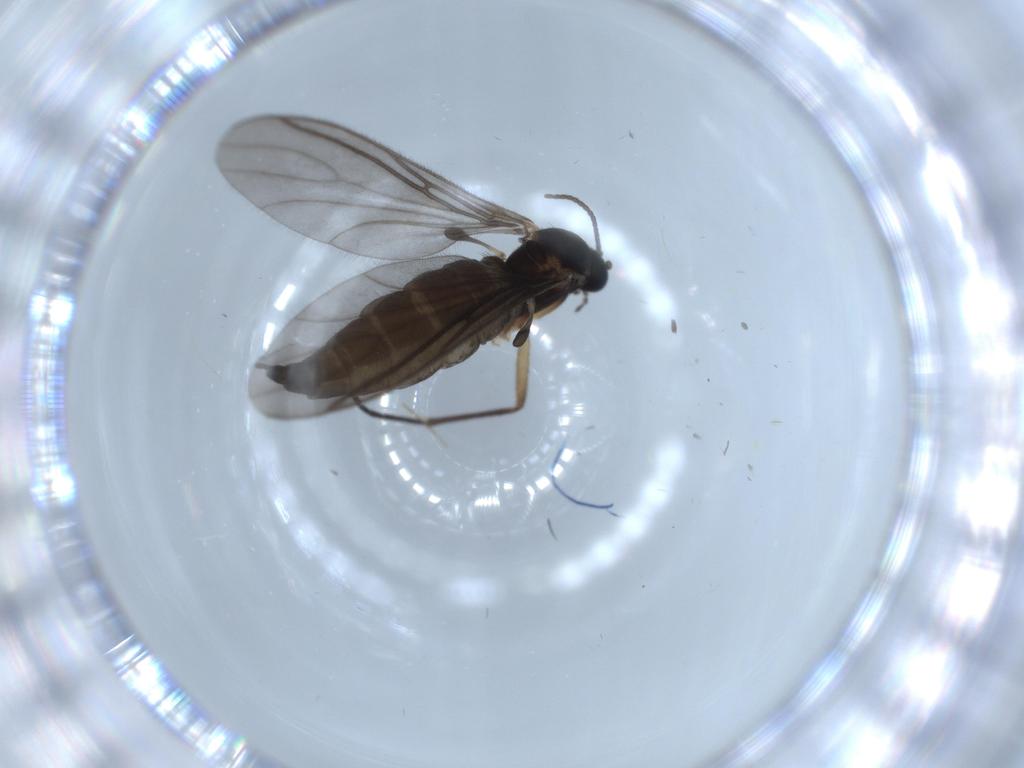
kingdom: Animalia
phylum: Arthropoda
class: Insecta
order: Diptera
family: Sciaridae
